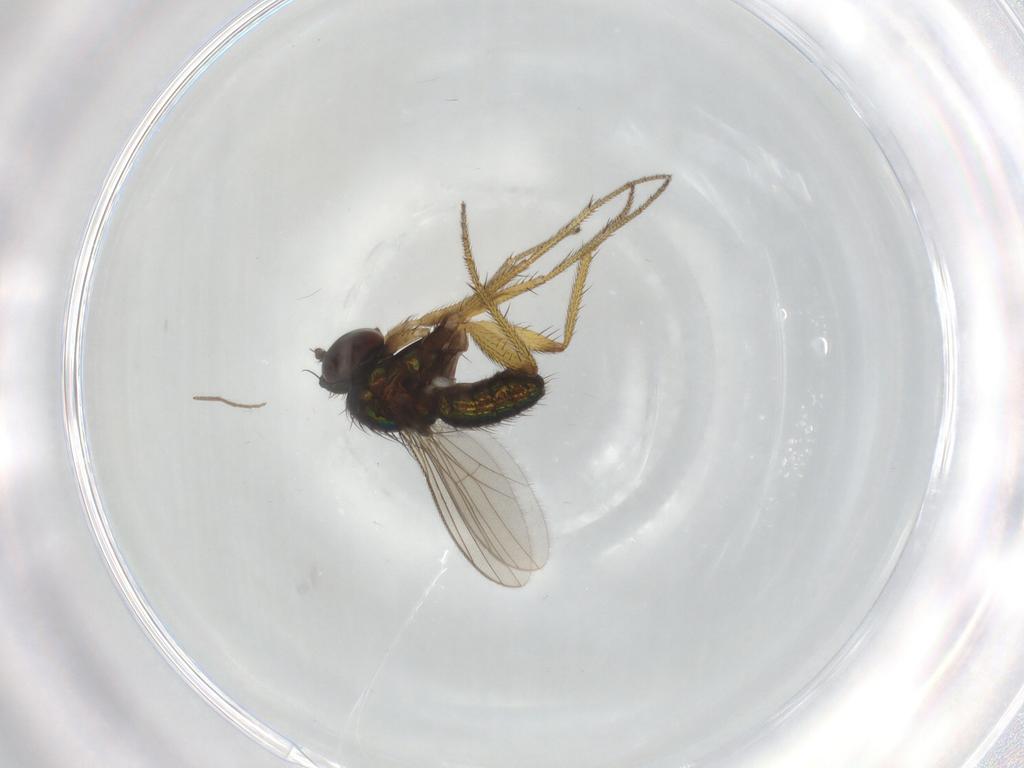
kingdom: Animalia
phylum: Arthropoda
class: Insecta
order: Diptera
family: Dolichopodidae
